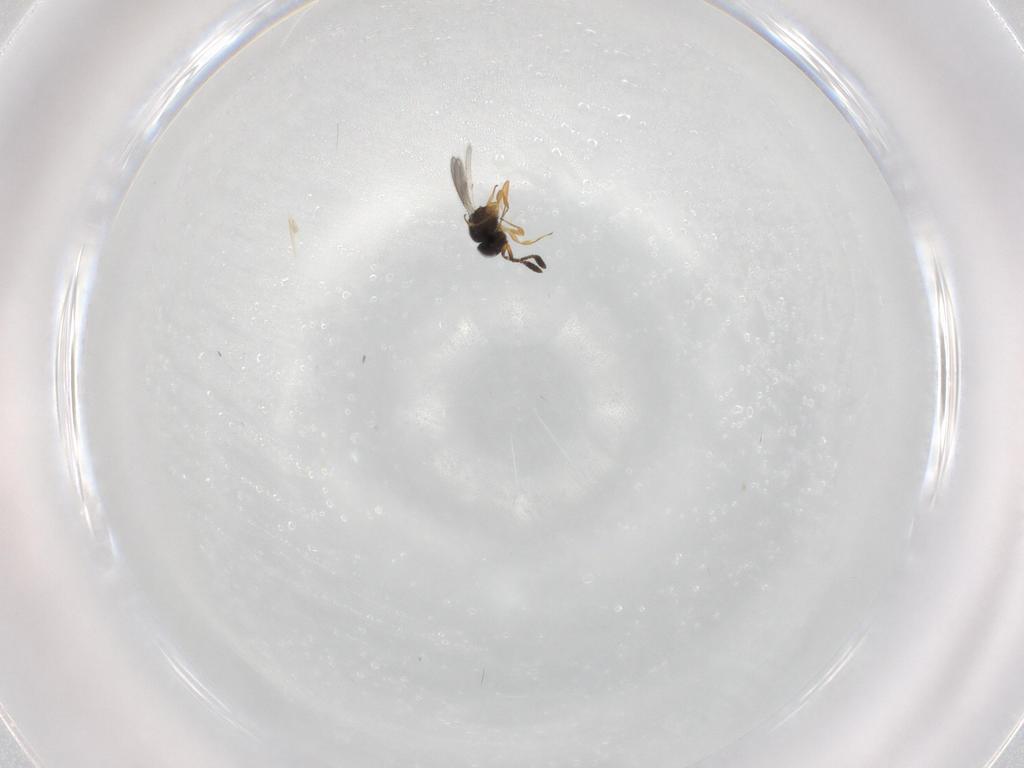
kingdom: Animalia
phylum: Arthropoda
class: Insecta
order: Hymenoptera
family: Scelionidae
